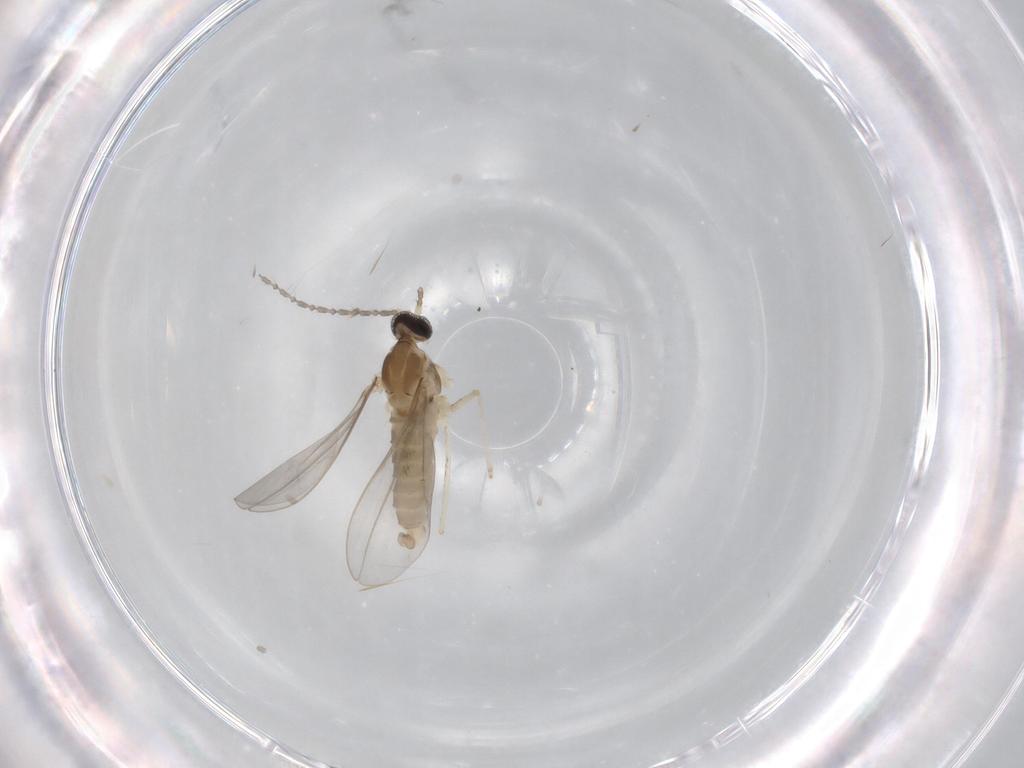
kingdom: Animalia
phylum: Arthropoda
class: Insecta
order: Diptera
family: Cecidomyiidae
